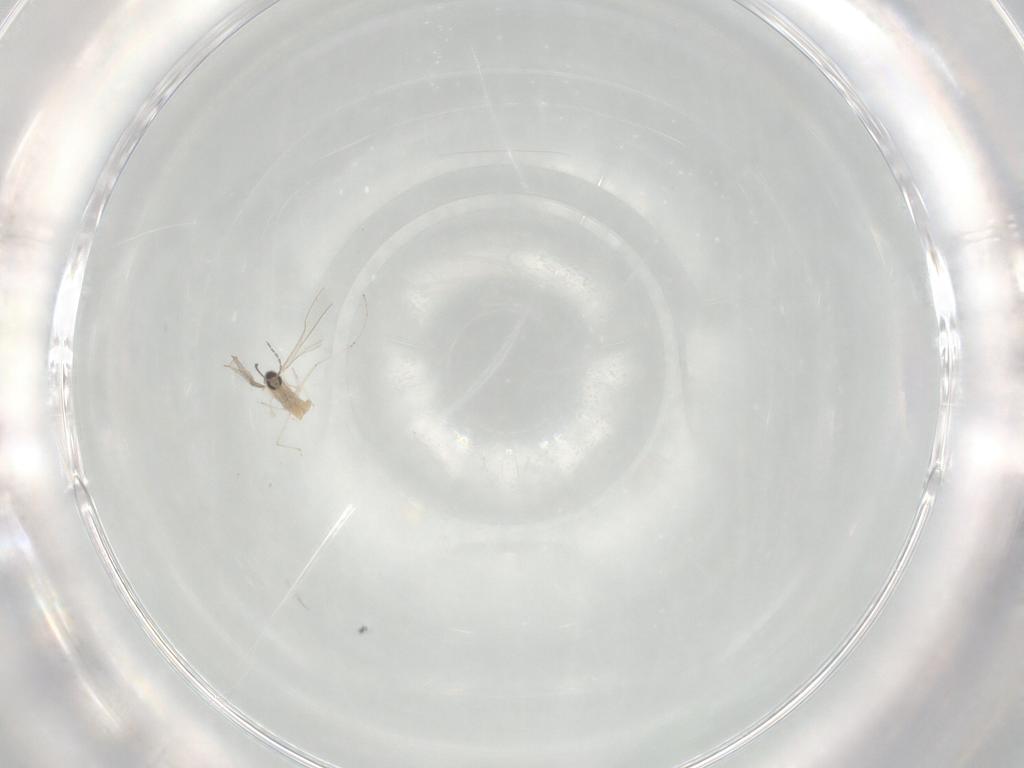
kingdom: Animalia
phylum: Arthropoda
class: Insecta
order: Diptera
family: Cecidomyiidae
